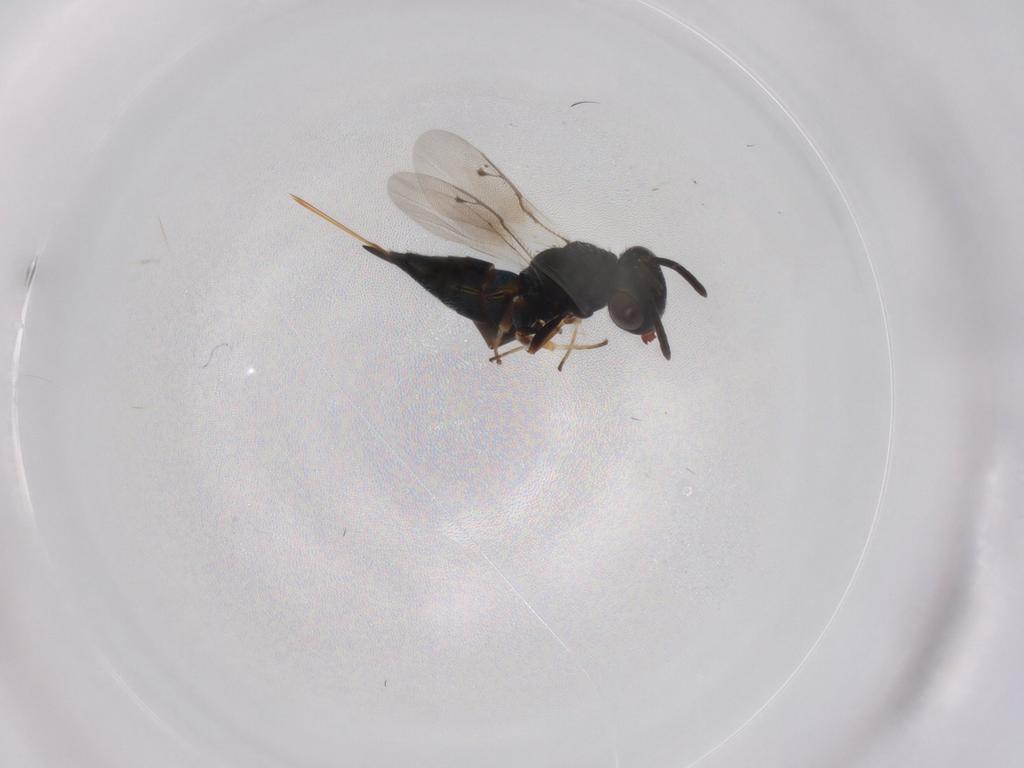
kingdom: Animalia
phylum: Arthropoda
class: Insecta
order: Hymenoptera
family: Pteromalidae
